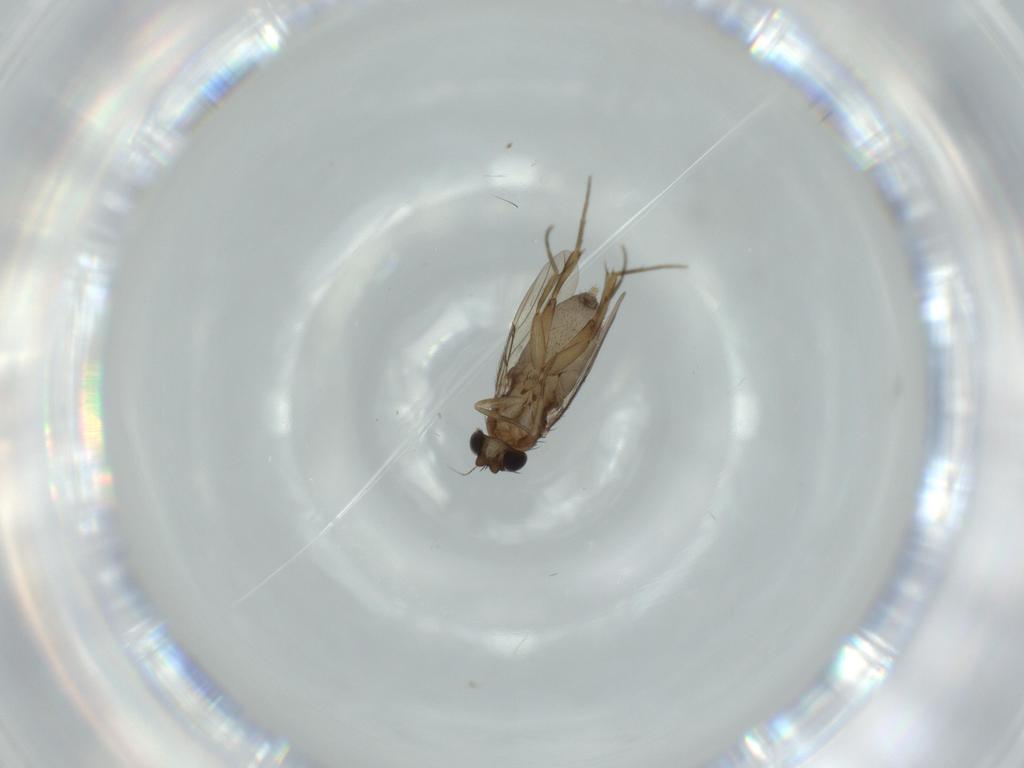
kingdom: Animalia
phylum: Arthropoda
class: Insecta
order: Diptera
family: Phoridae
